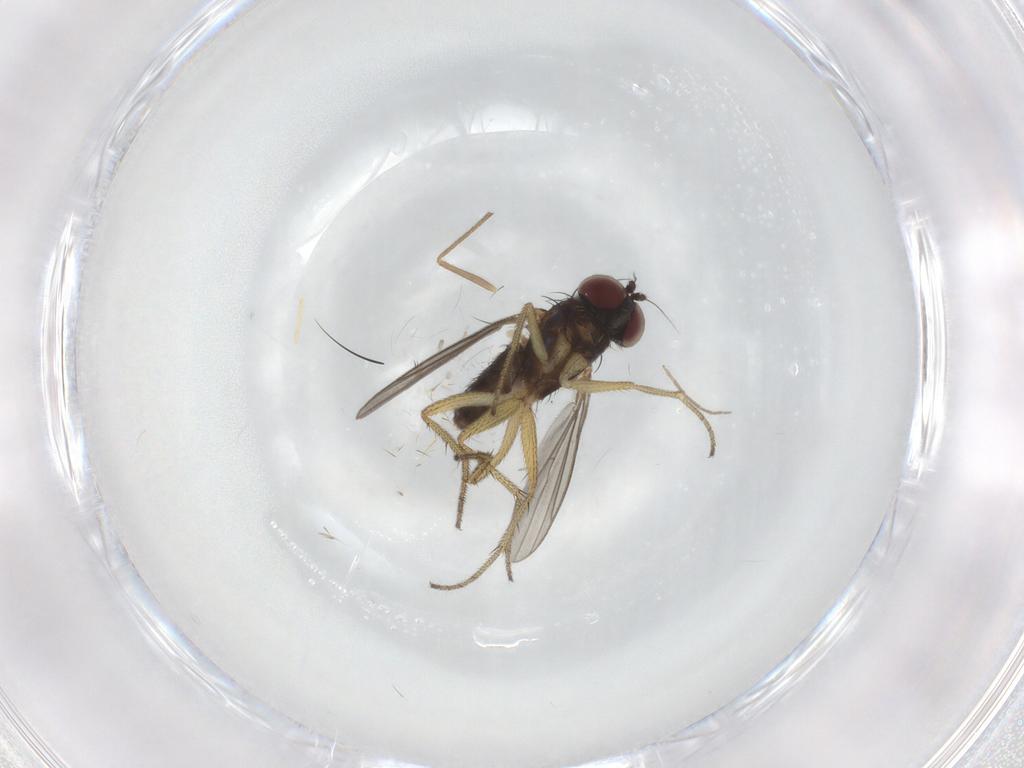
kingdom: Animalia
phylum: Arthropoda
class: Insecta
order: Diptera
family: Chironomidae
